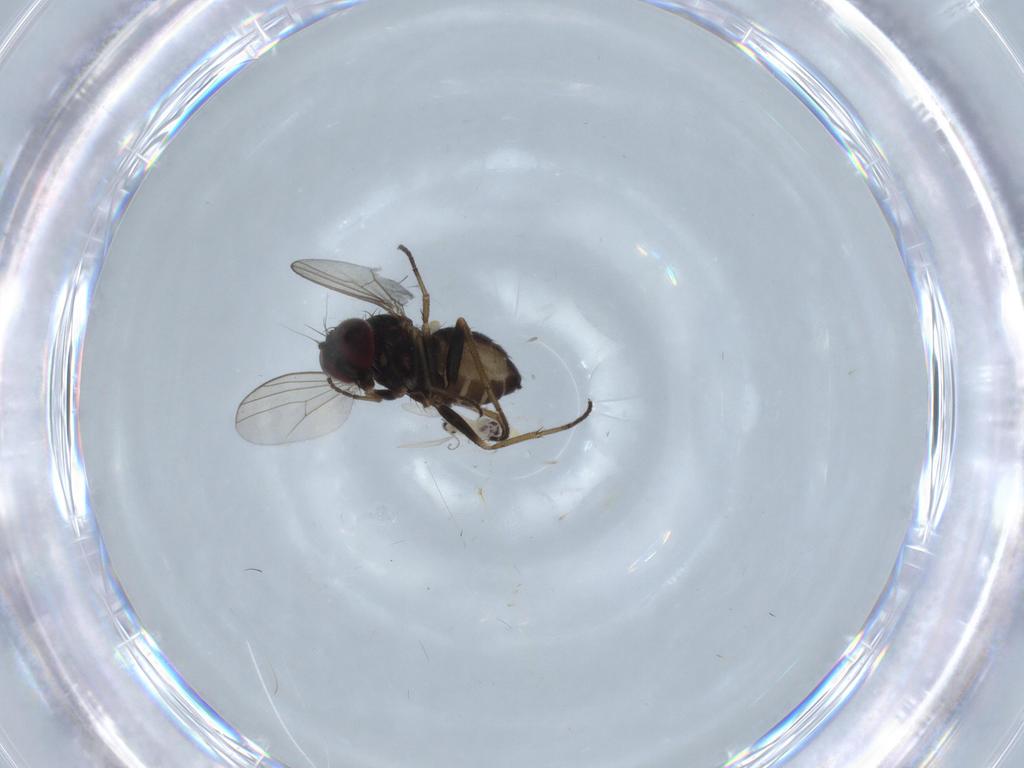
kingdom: Animalia
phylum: Arthropoda
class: Insecta
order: Diptera
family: Dolichopodidae
